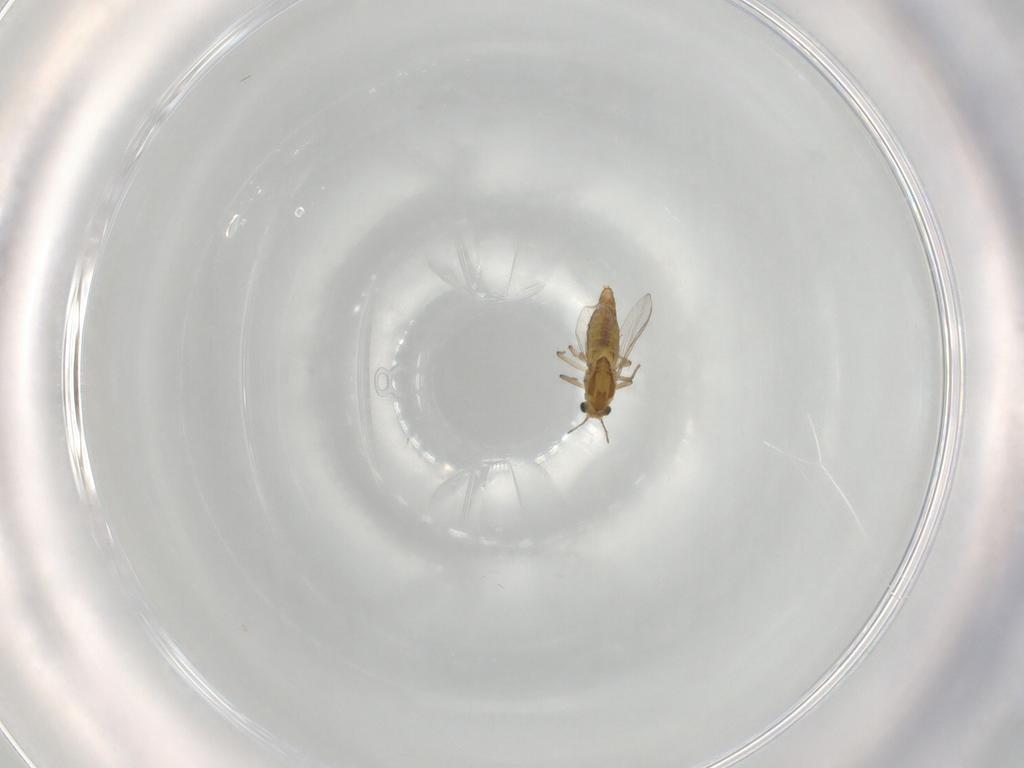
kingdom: Animalia
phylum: Arthropoda
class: Insecta
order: Diptera
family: Chironomidae
